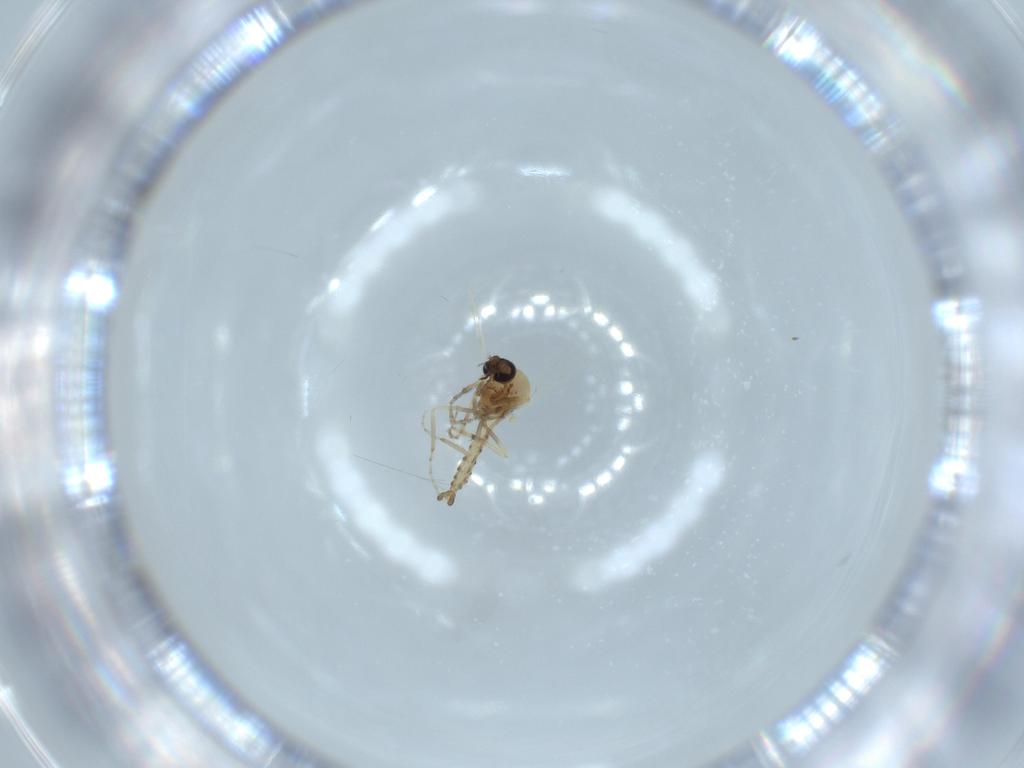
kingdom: Animalia
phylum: Arthropoda
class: Insecta
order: Diptera
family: Ceratopogonidae
